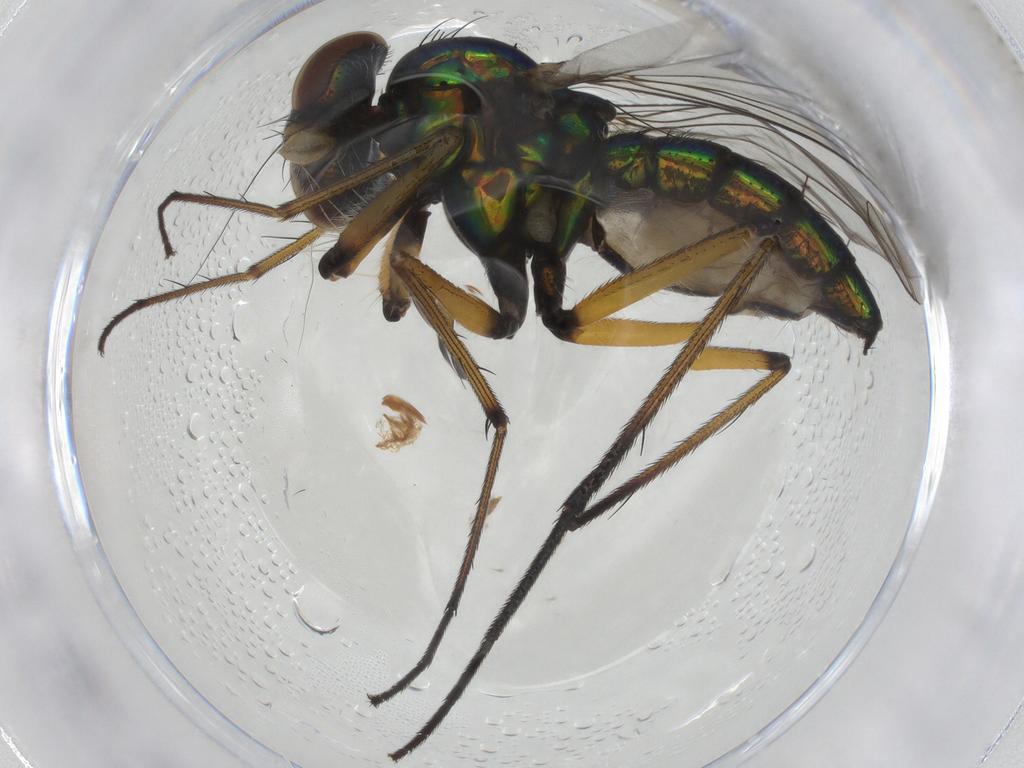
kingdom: Animalia
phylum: Arthropoda
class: Insecta
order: Diptera
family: Dolichopodidae
